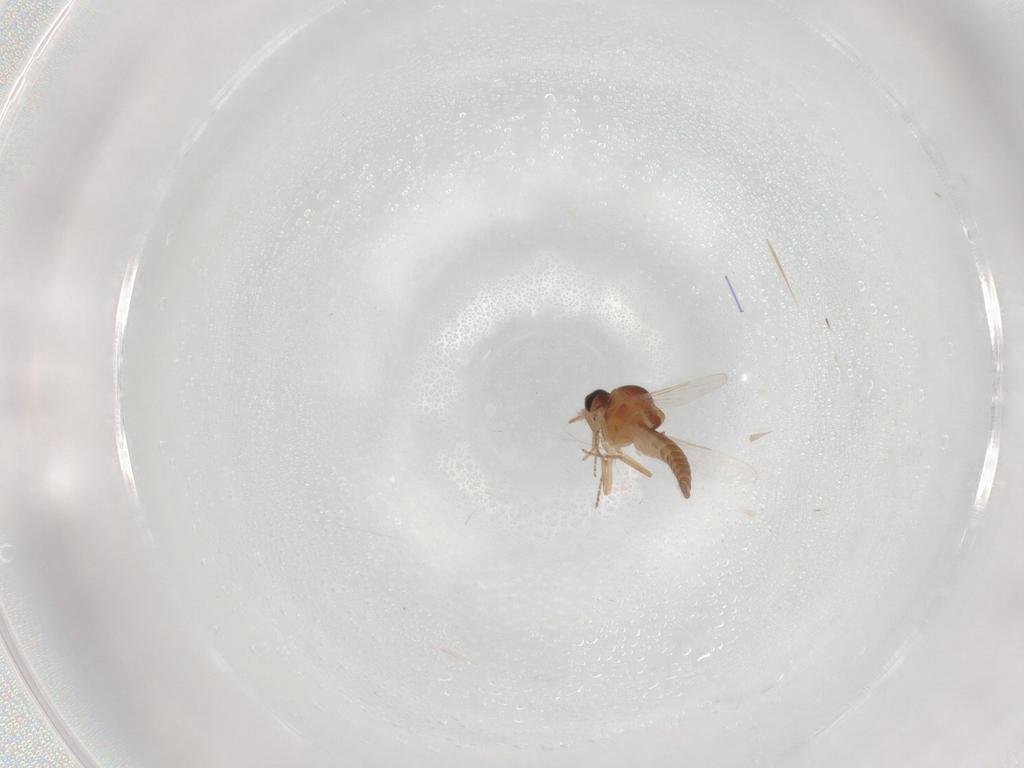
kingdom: Animalia
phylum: Arthropoda
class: Insecta
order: Diptera
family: Ceratopogonidae
